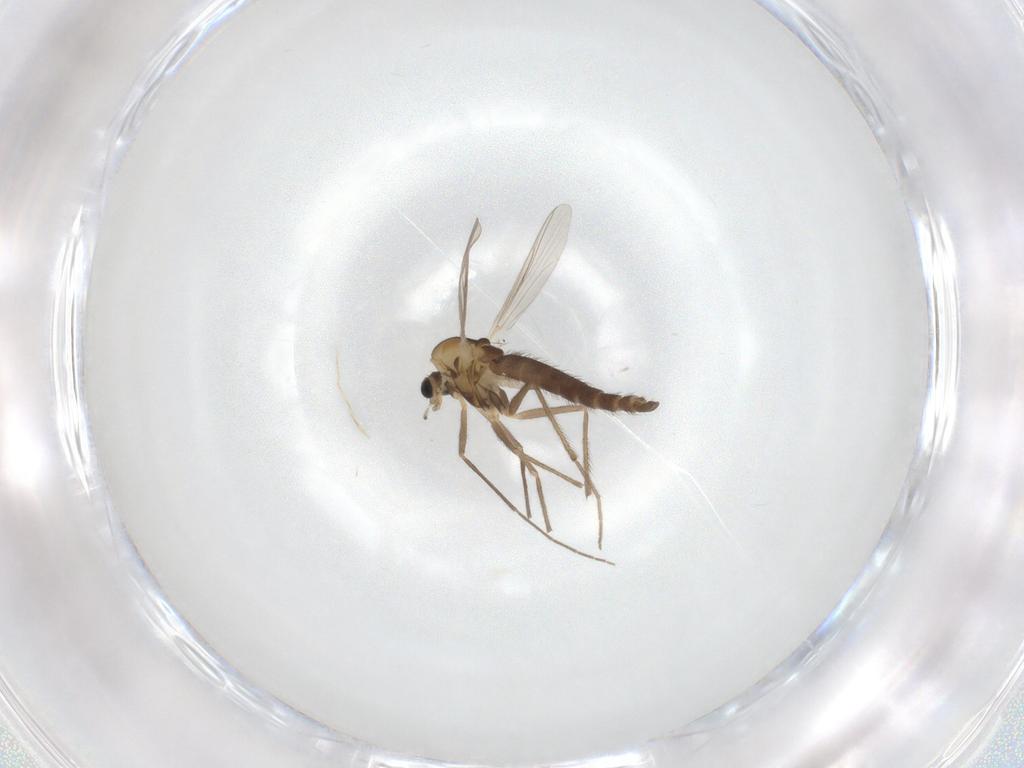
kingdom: Animalia
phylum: Arthropoda
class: Insecta
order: Diptera
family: Chironomidae
